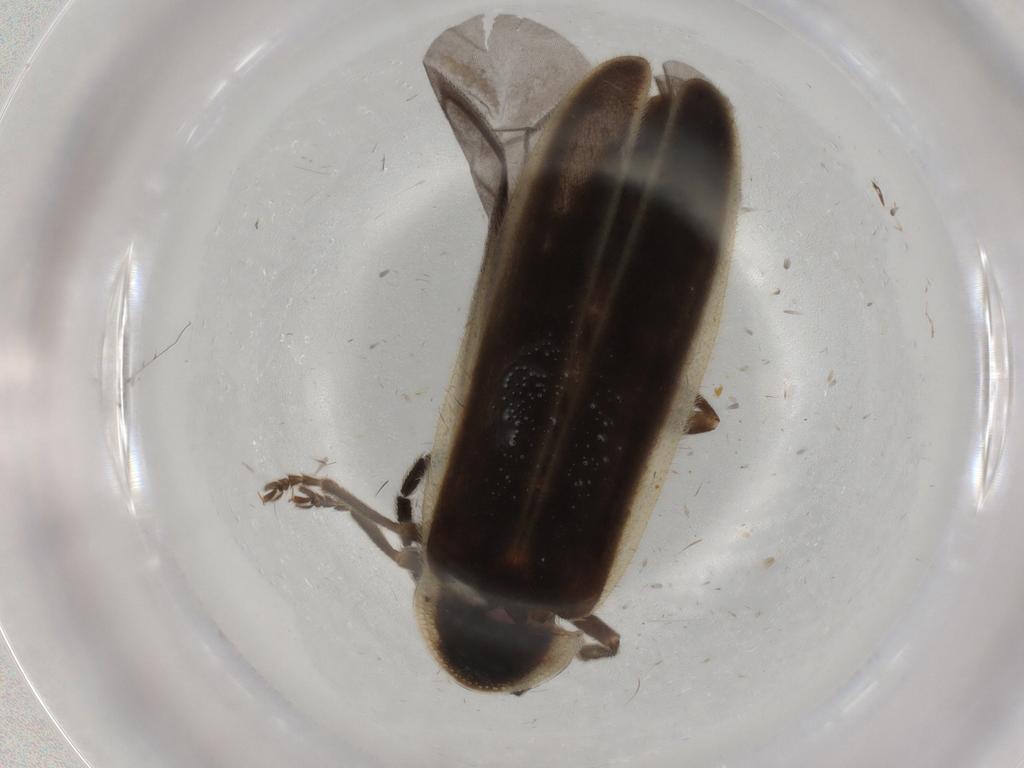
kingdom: Animalia
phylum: Arthropoda
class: Insecta
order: Coleoptera
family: Lampyridae
